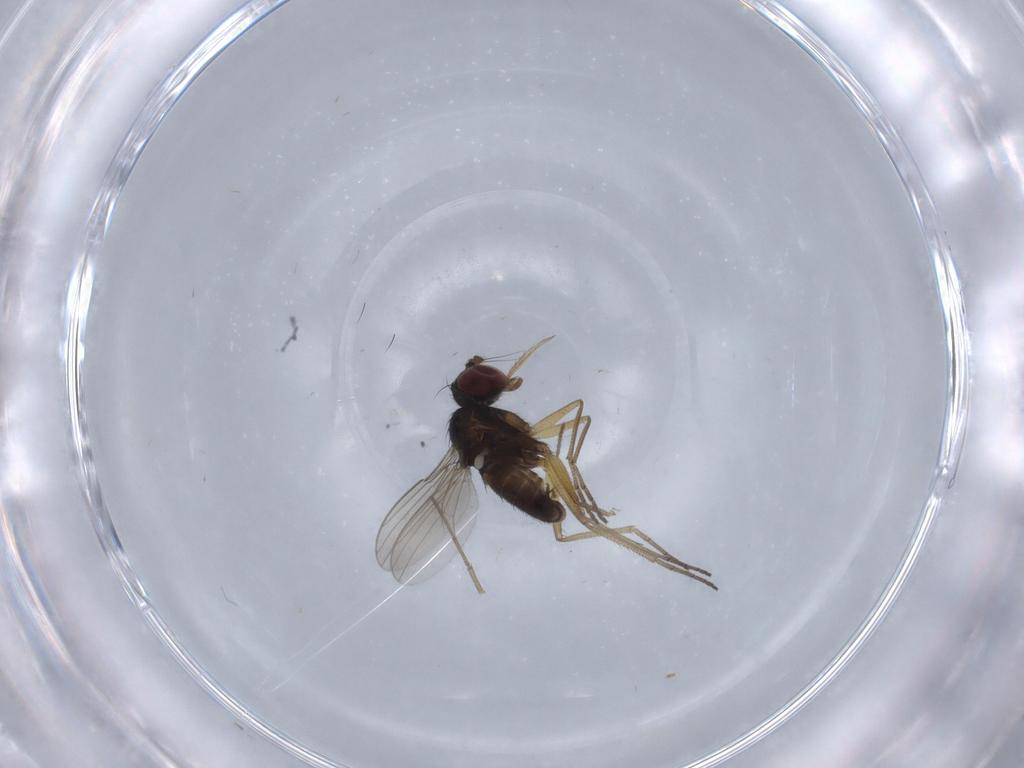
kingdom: Animalia
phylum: Arthropoda
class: Insecta
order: Diptera
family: Dolichopodidae
